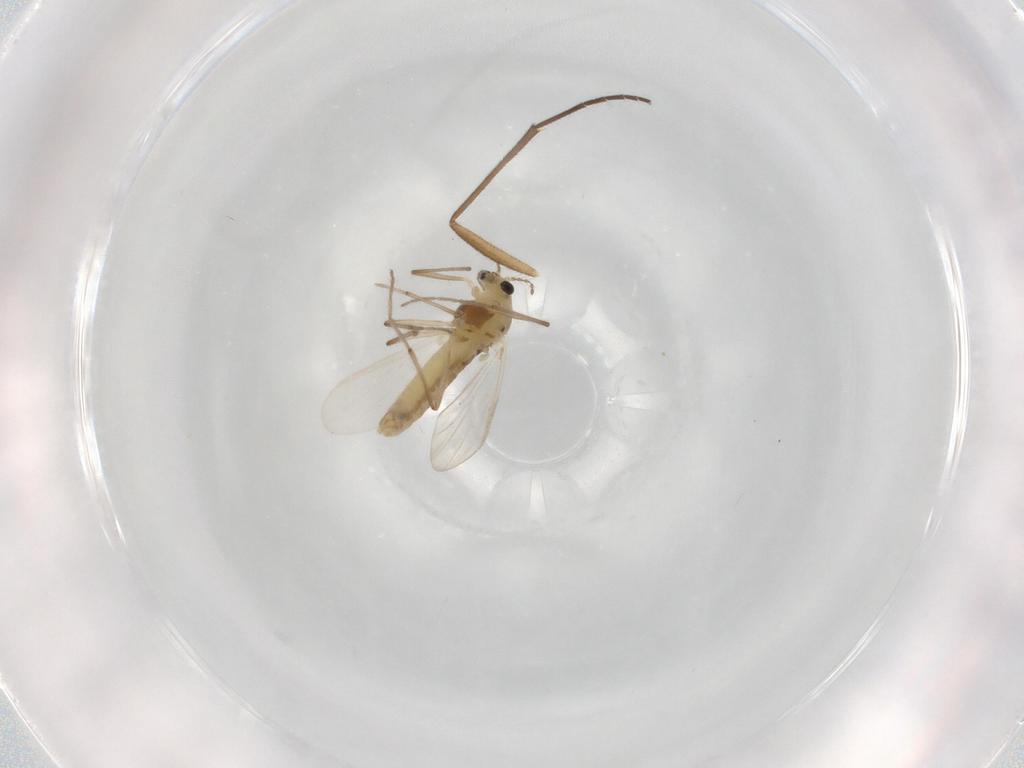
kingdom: Animalia
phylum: Arthropoda
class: Insecta
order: Diptera
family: Chironomidae
